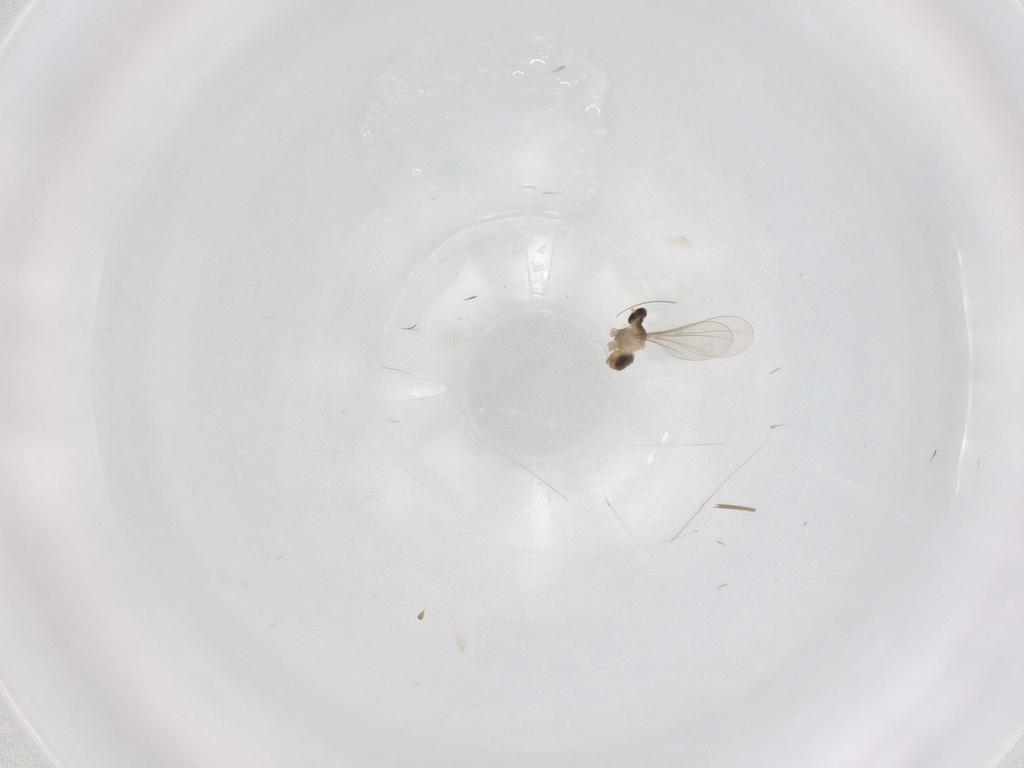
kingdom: Animalia
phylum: Arthropoda
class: Insecta
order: Diptera
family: Cecidomyiidae
